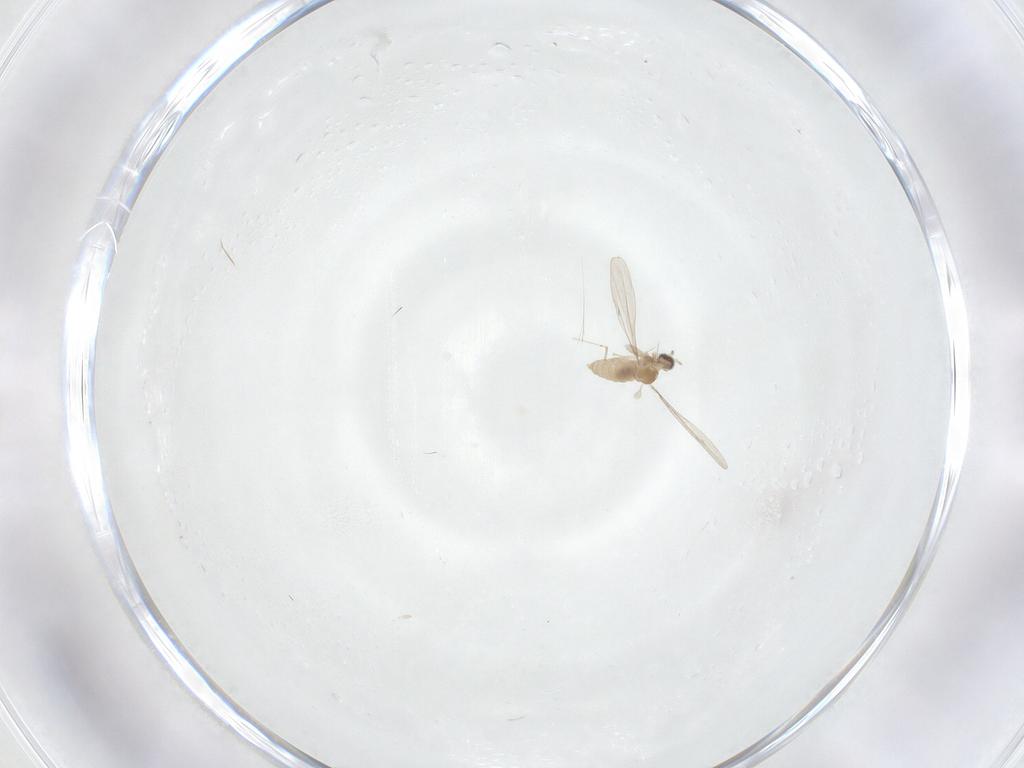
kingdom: Animalia
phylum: Arthropoda
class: Insecta
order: Diptera
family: Cecidomyiidae
